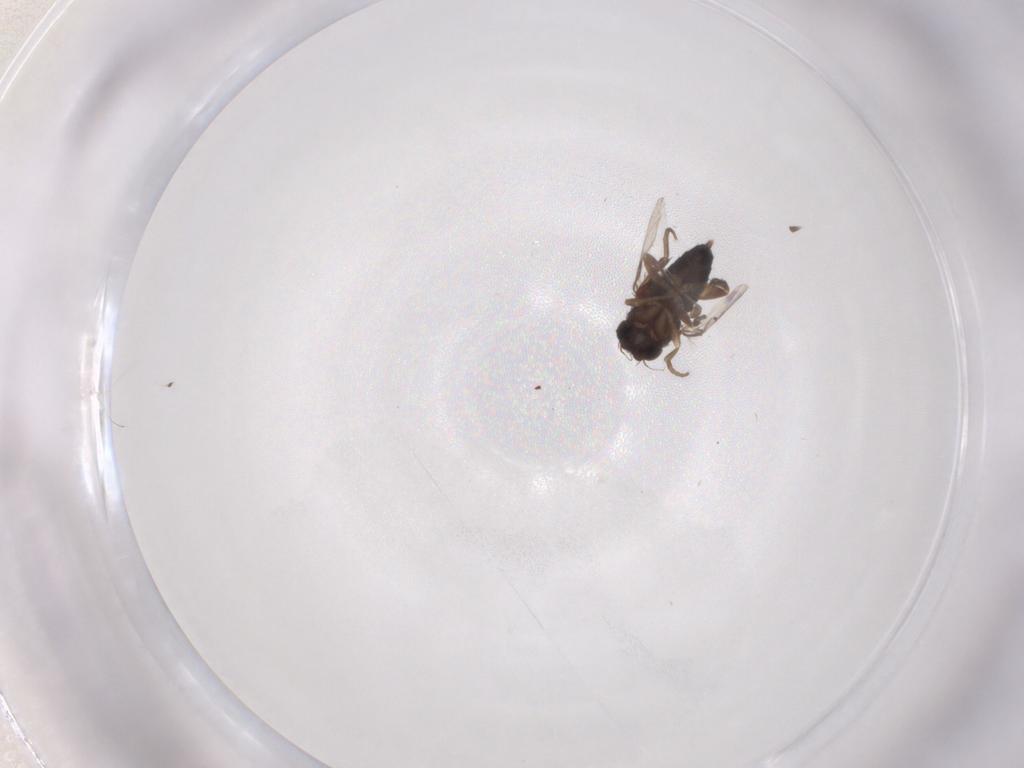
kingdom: Animalia
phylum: Arthropoda
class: Insecta
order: Diptera
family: Phoridae
